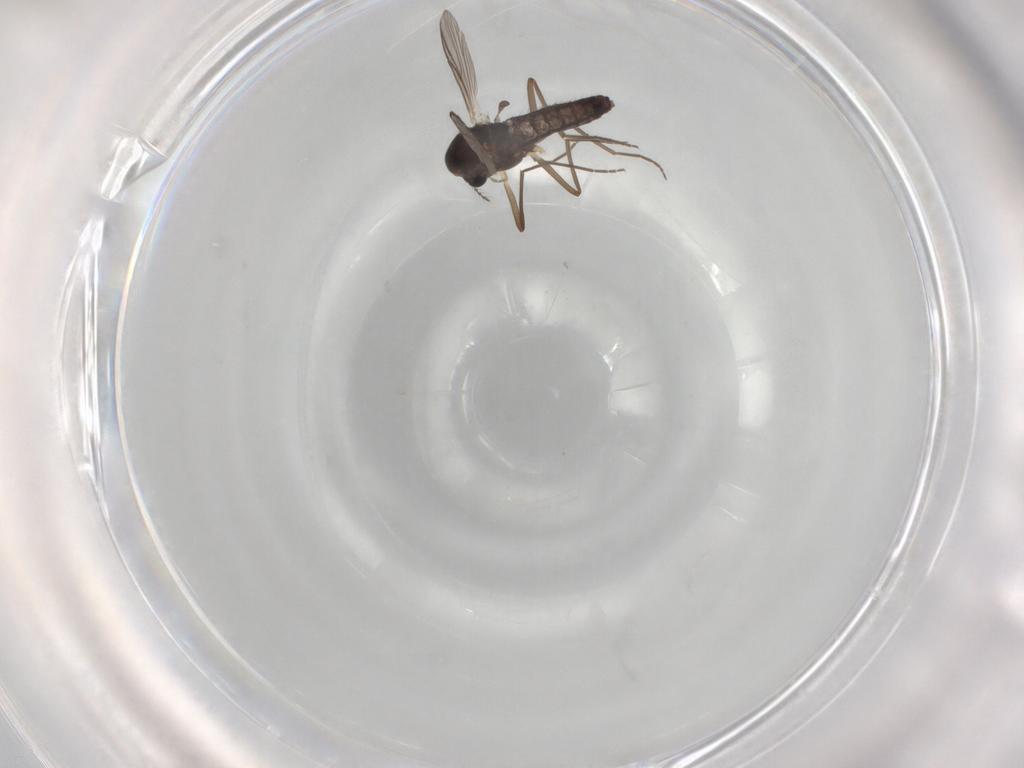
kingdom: Animalia
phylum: Arthropoda
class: Insecta
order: Diptera
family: Chironomidae
